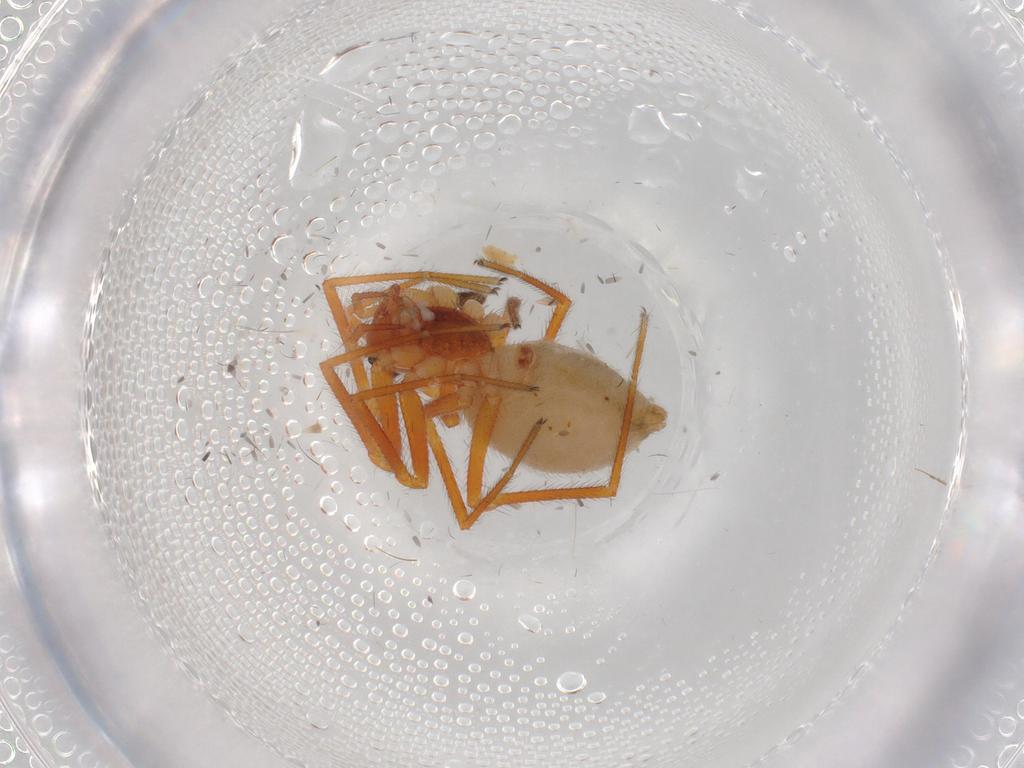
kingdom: Animalia
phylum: Arthropoda
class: Arachnida
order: Araneae
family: Linyphiidae
